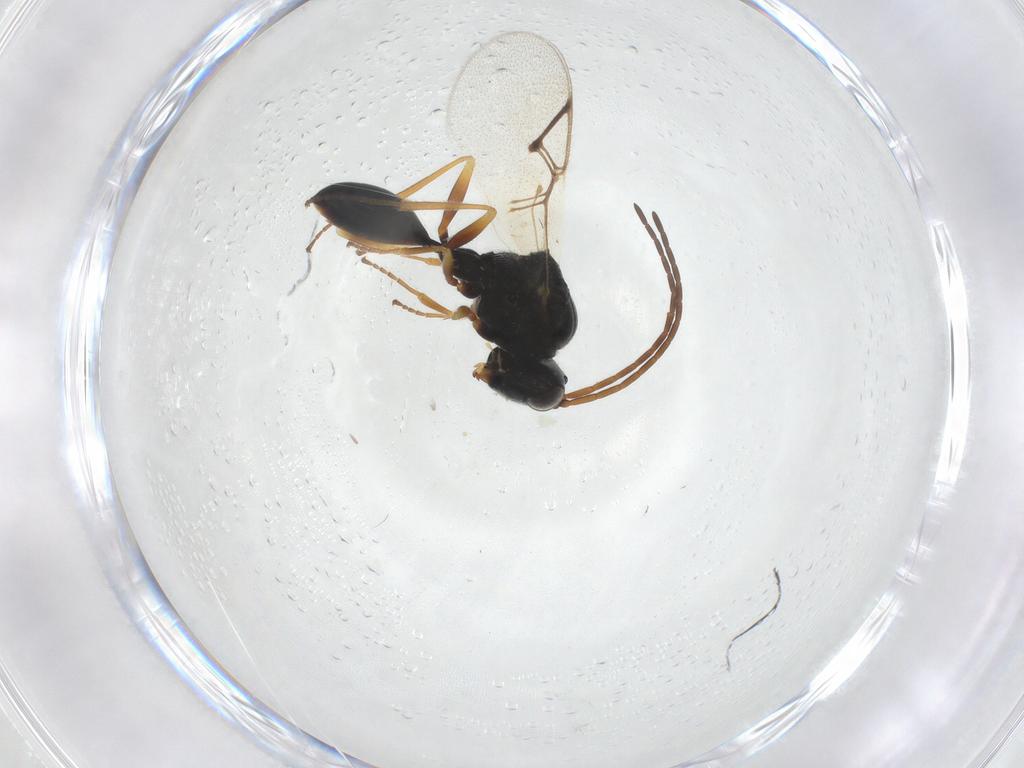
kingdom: Animalia
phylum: Arthropoda
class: Insecta
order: Hymenoptera
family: Figitidae
